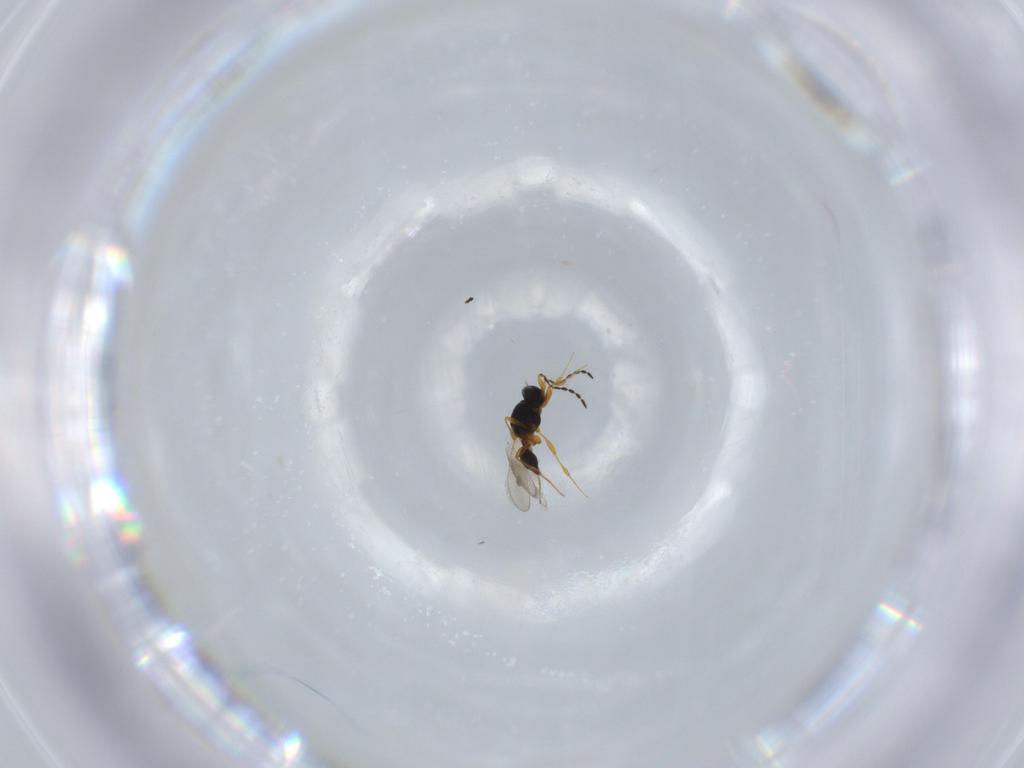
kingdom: Animalia
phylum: Arthropoda
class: Insecta
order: Hymenoptera
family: Platygastridae
